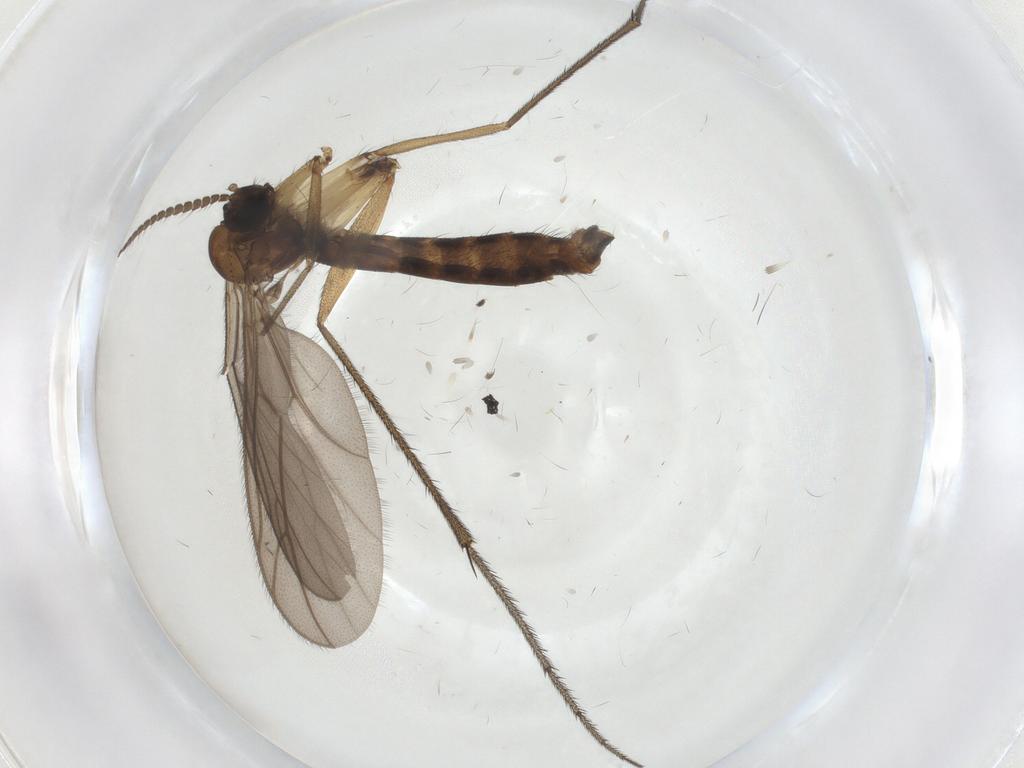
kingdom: Animalia
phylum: Arthropoda
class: Insecta
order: Diptera
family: Ditomyiidae
